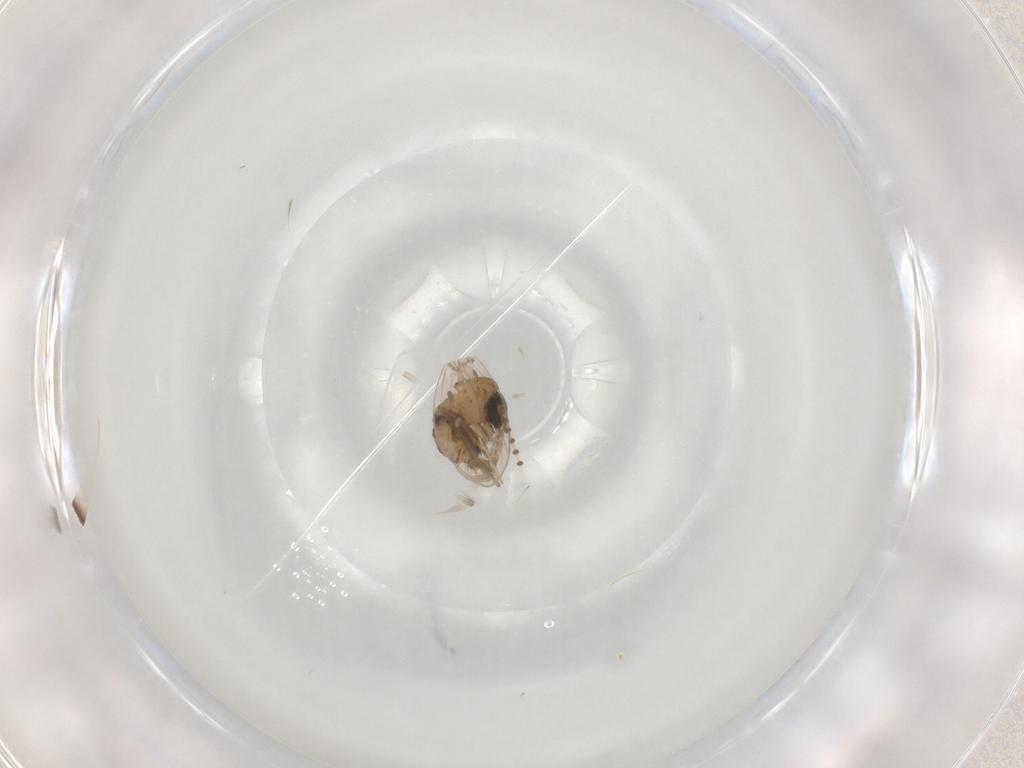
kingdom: Animalia
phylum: Arthropoda
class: Insecta
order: Diptera
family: Psychodidae
